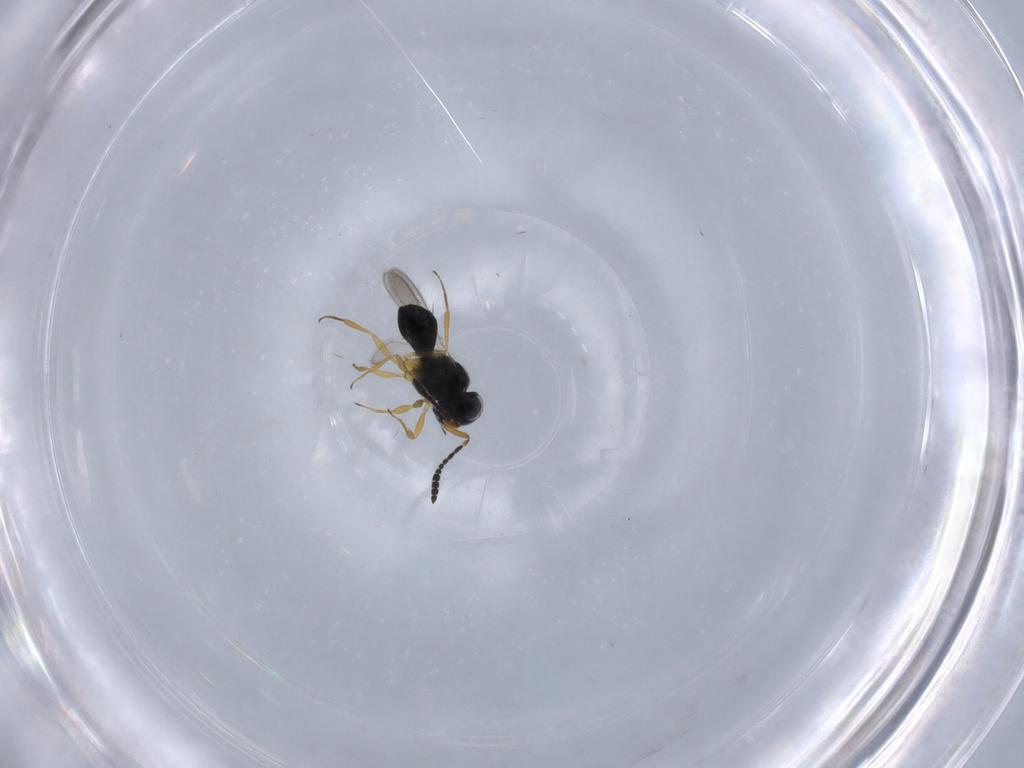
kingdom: Animalia
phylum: Arthropoda
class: Insecta
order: Hymenoptera
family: Scelionidae
